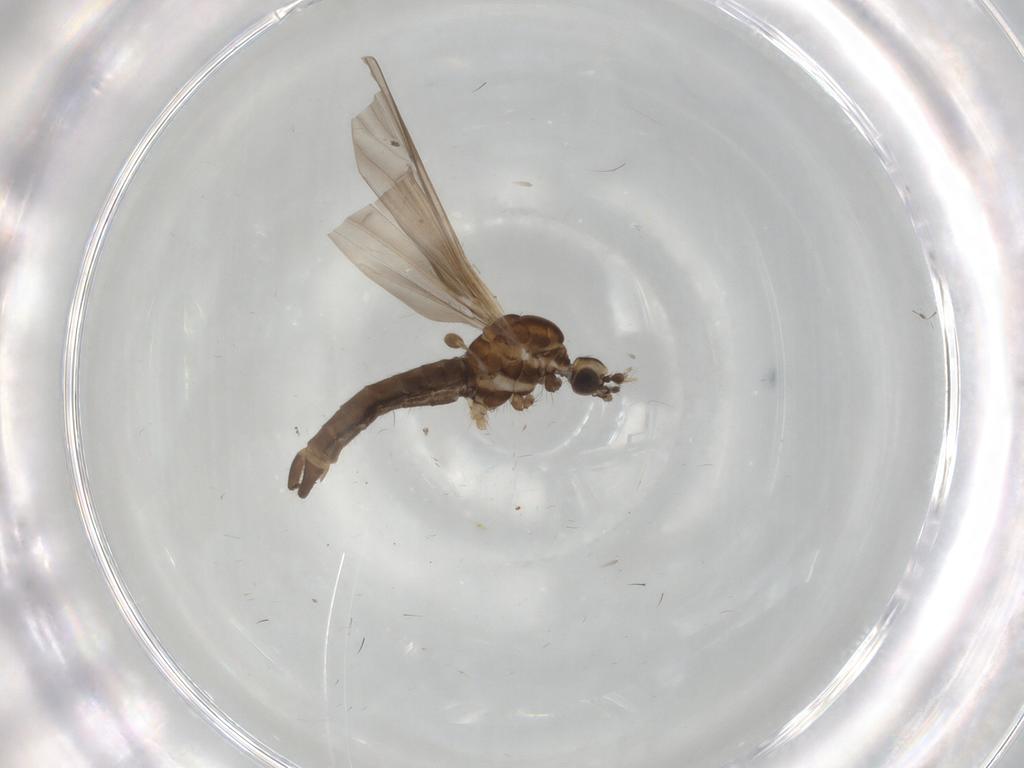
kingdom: Animalia
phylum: Arthropoda
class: Insecta
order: Diptera
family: Limoniidae
